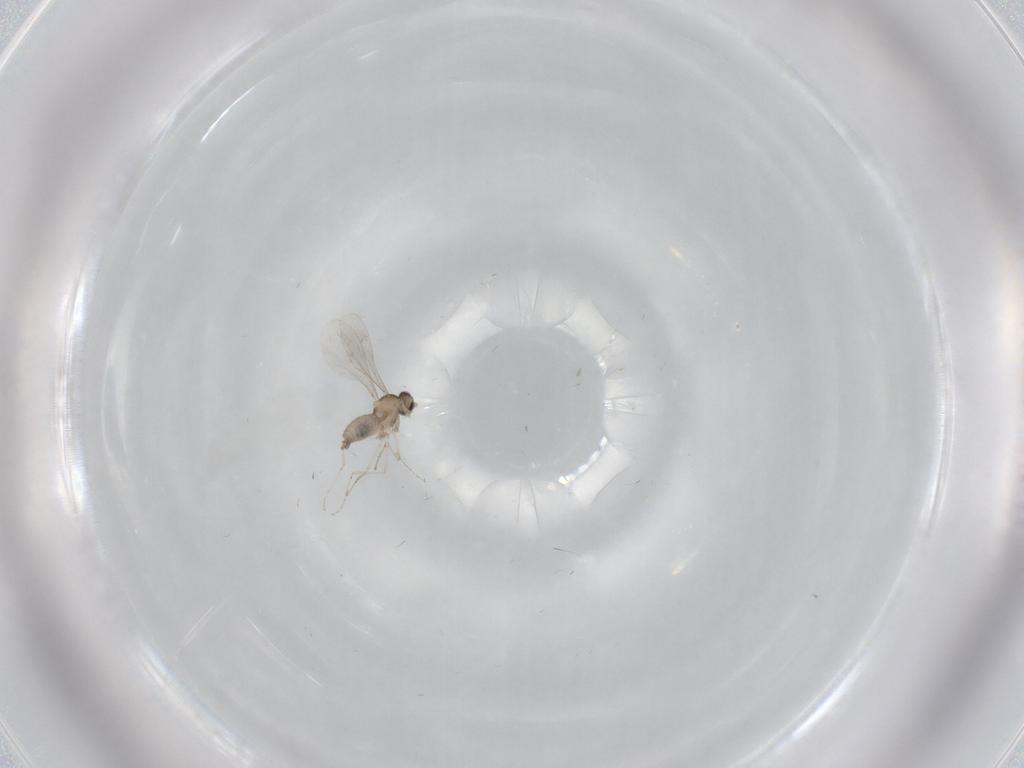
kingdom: Animalia
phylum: Arthropoda
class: Insecta
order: Diptera
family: Cecidomyiidae
